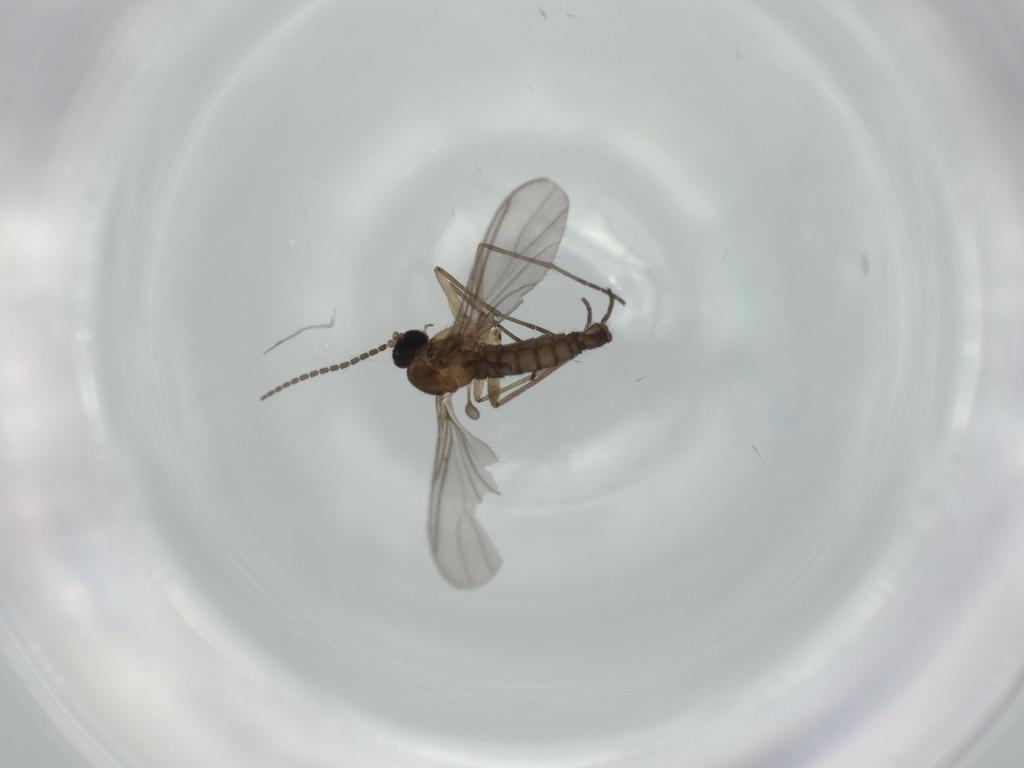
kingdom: Animalia
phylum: Arthropoda
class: Insecta
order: Diptera
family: Sciaridae
